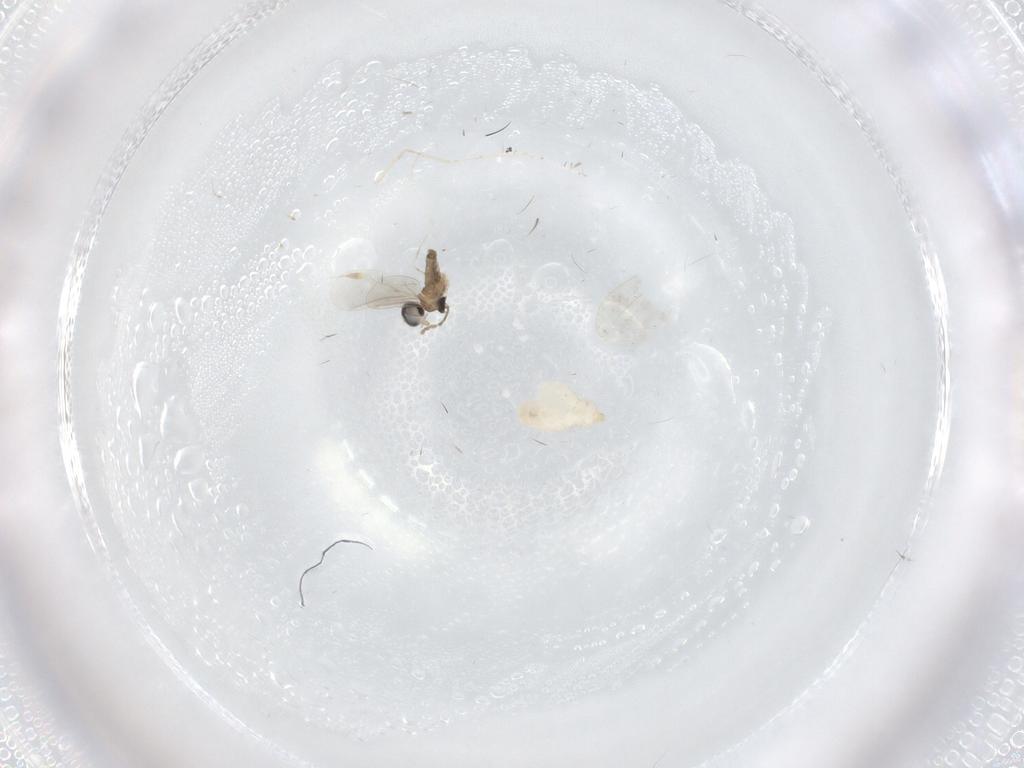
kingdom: Animalia
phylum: Arthropoda
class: Insecta
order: Diptera
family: Cecidomyiidae
